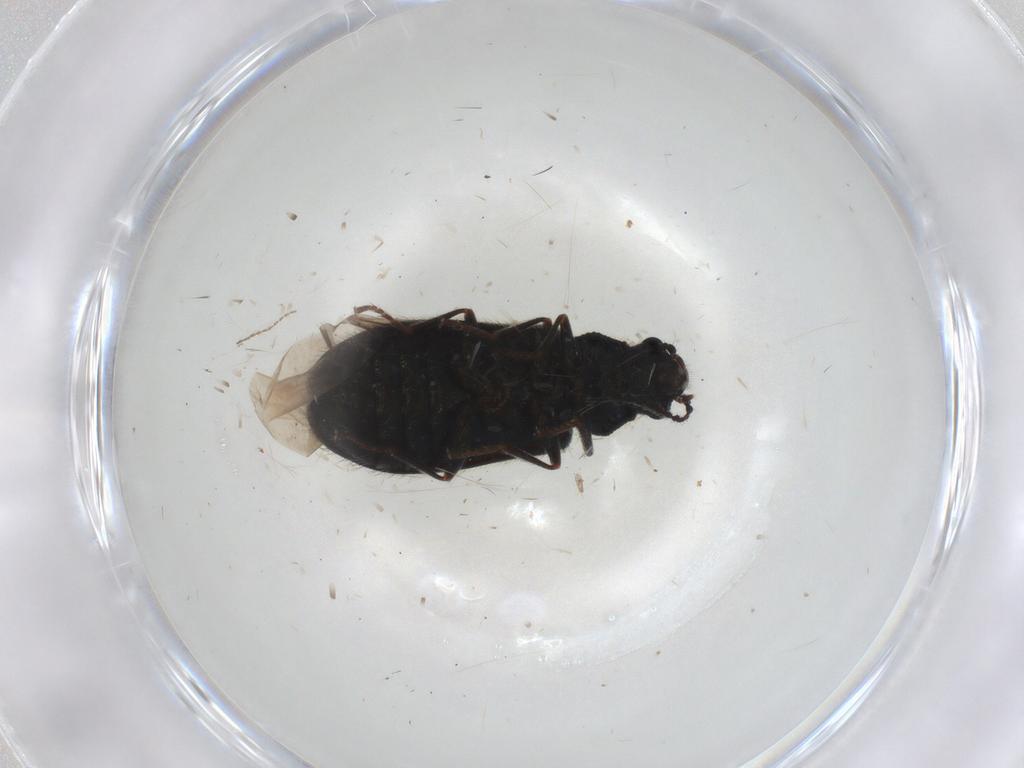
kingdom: Animalia
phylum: Arthropoda
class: Insecta
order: Coleoptera
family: Melyridae
